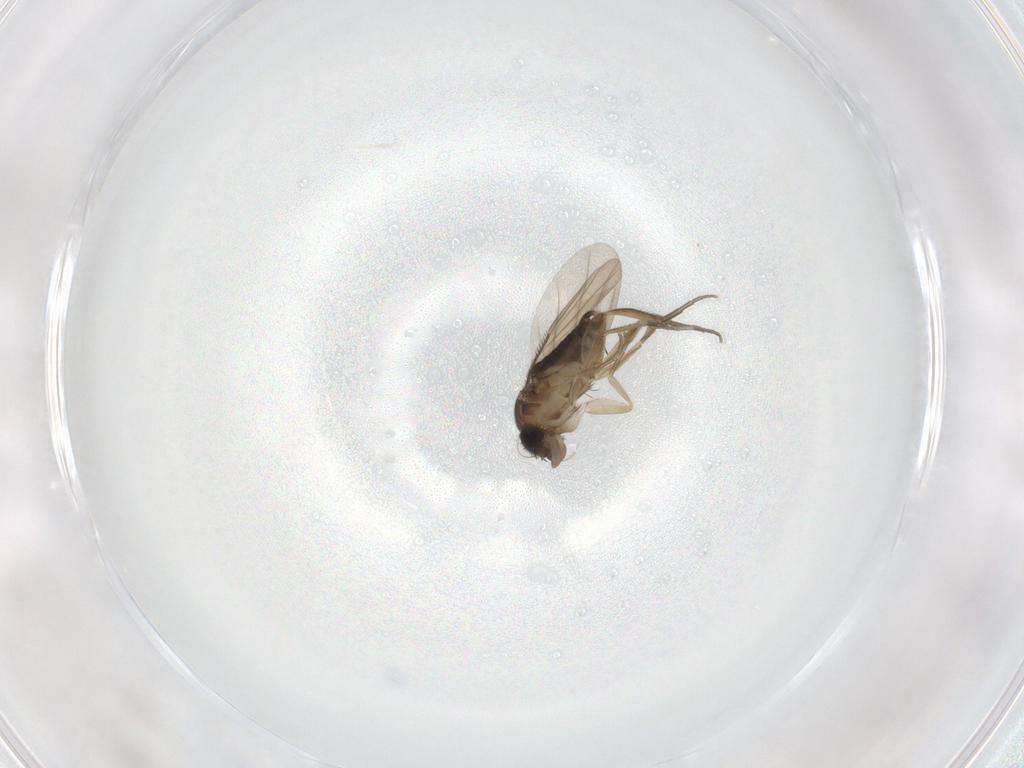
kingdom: Animalia
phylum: Arthropoda
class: Insecta
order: Diptera
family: Phoridae
